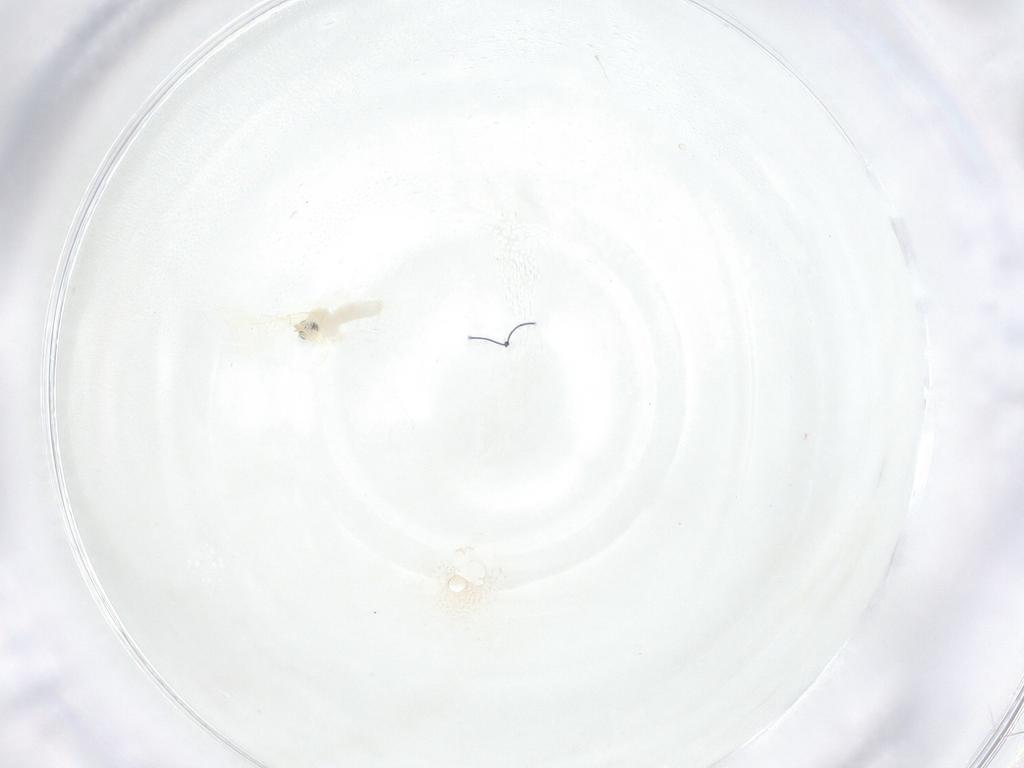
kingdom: Animalia
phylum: Arthropoda
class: Insecta
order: Diptera
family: Cecidomyiidae
